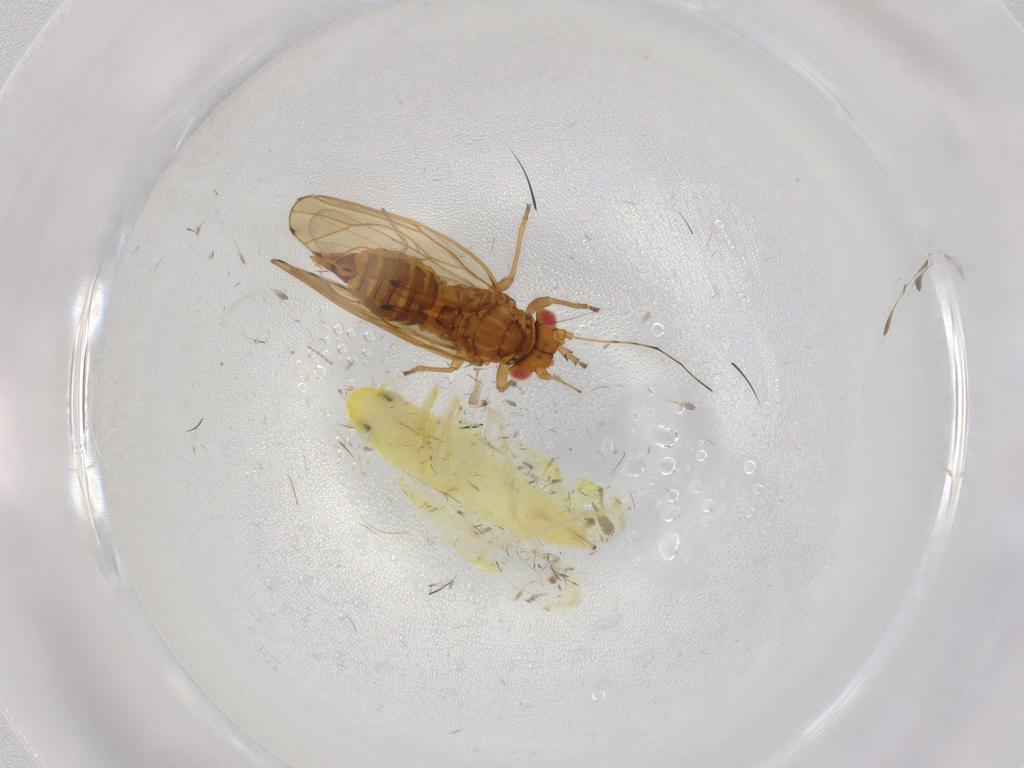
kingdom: Animalia
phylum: Arthropoda
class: Insecta
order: Diptera
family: Chironomidae
